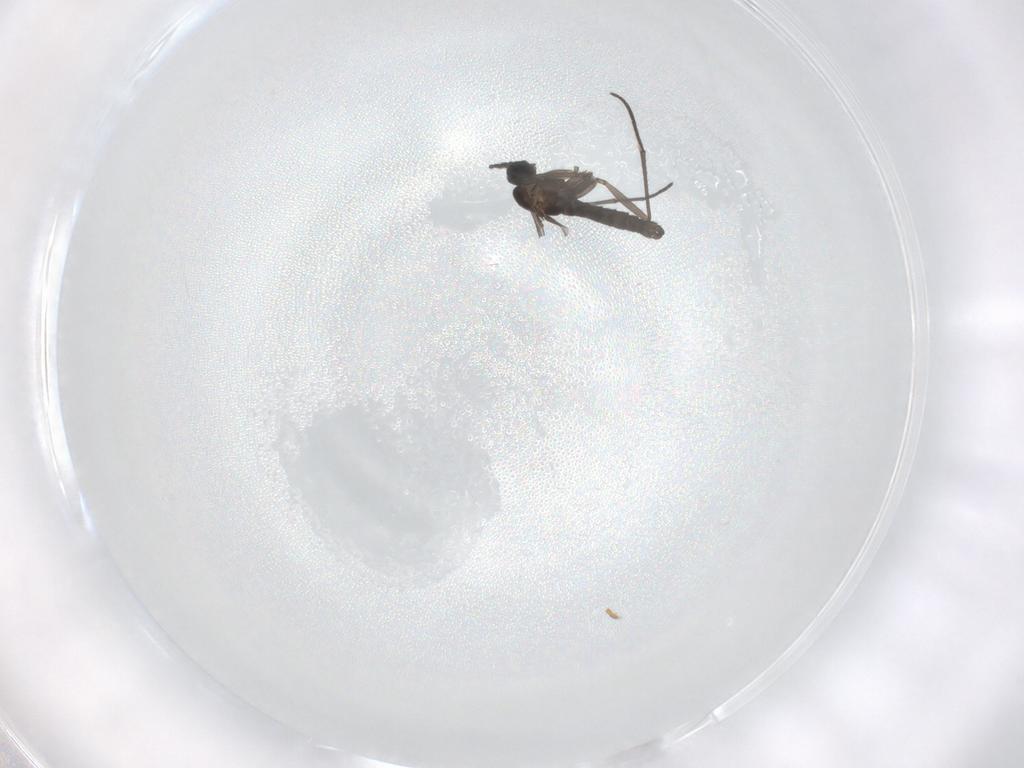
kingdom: Animalia
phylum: Arthropoda
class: Insecta
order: Diptera
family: Sciaridae
